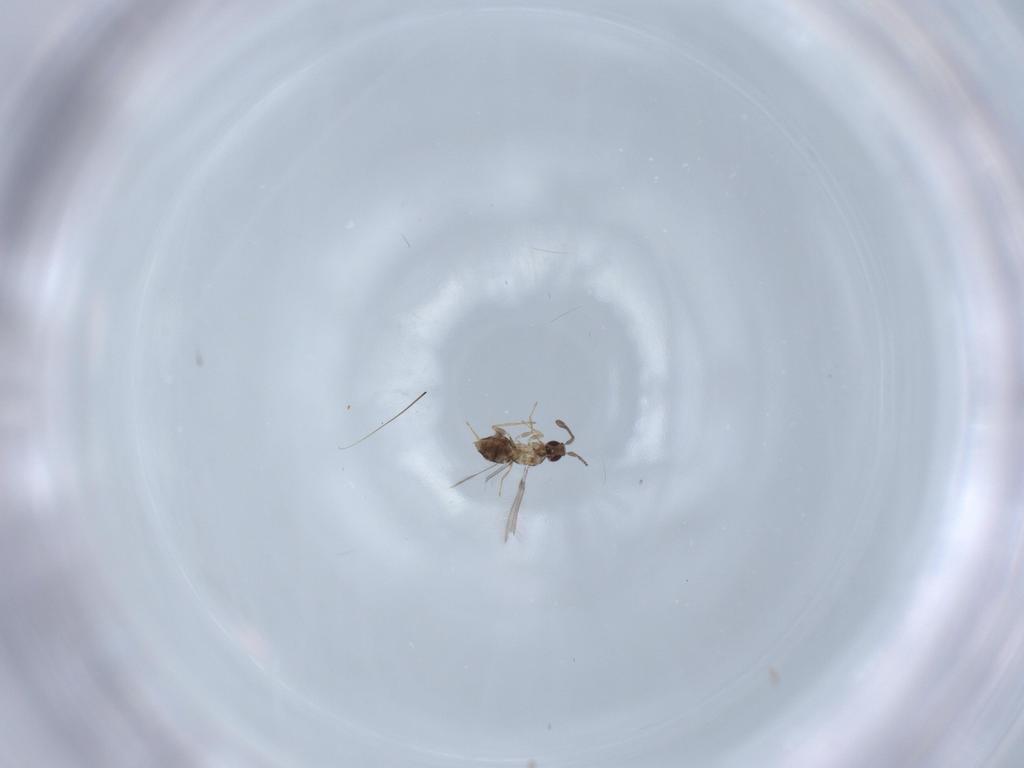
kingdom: Animalia
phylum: Arthropoda
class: Insecta
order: Hymenoptera
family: Mymaridae
